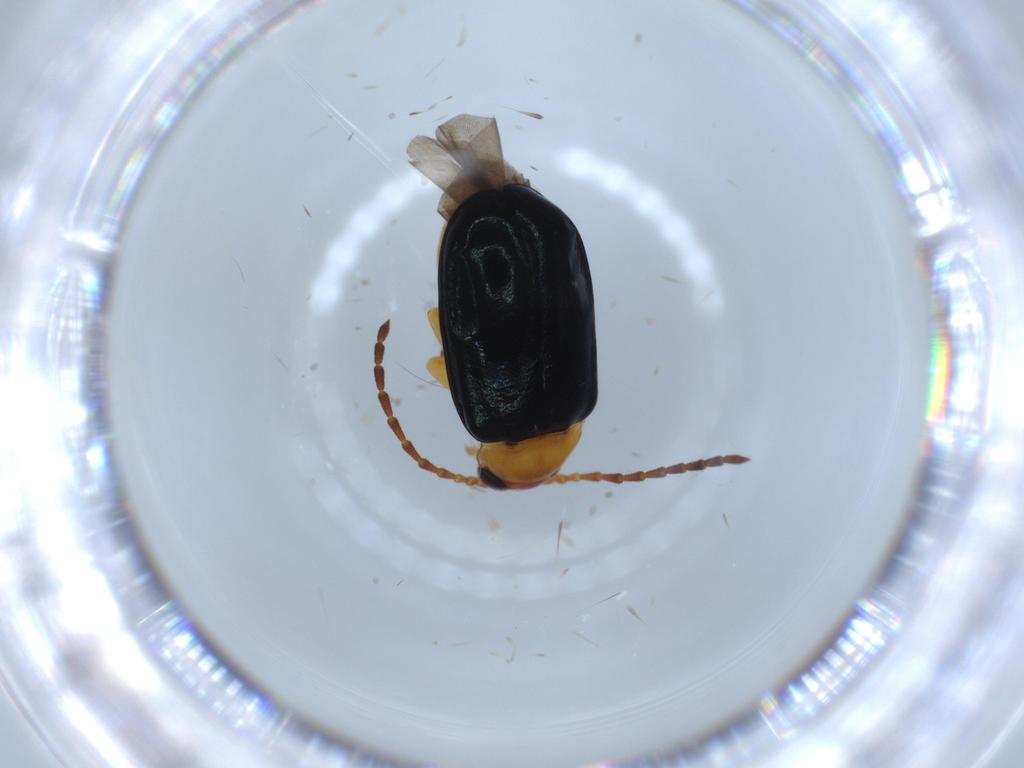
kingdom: Animalia
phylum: Arthropoda
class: Insecta
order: Coleoptera
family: Chrysomelidae
